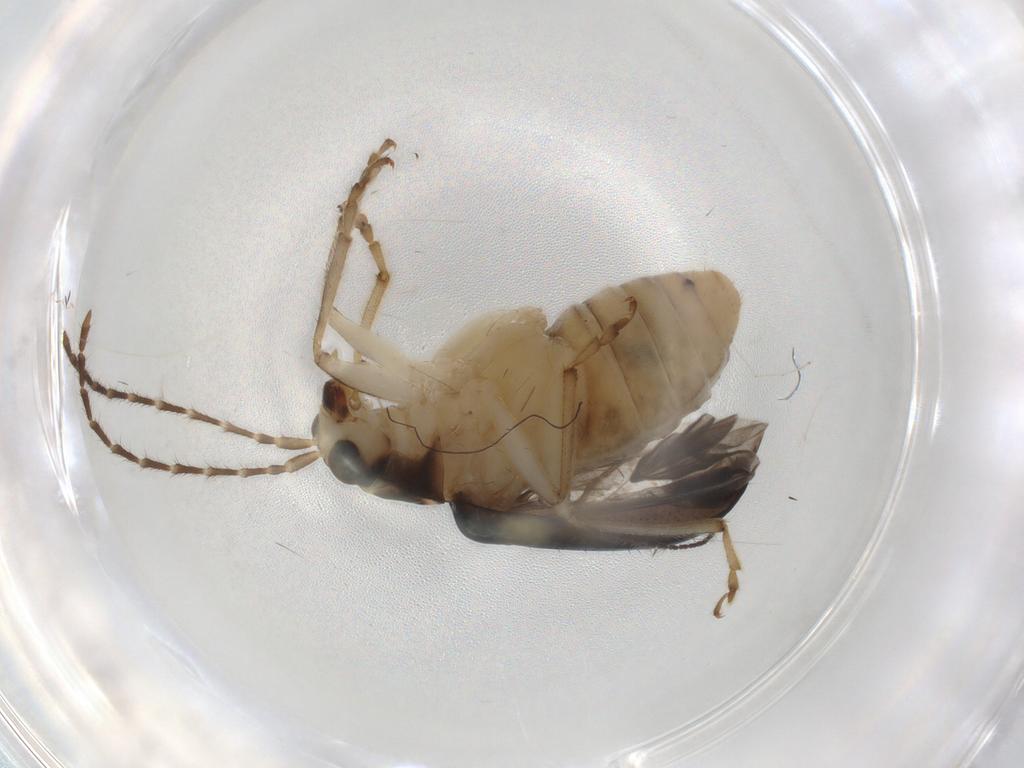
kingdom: Animalia
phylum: Arthropoda
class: Insecta
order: Coleoptera
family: Chrysomelidae
